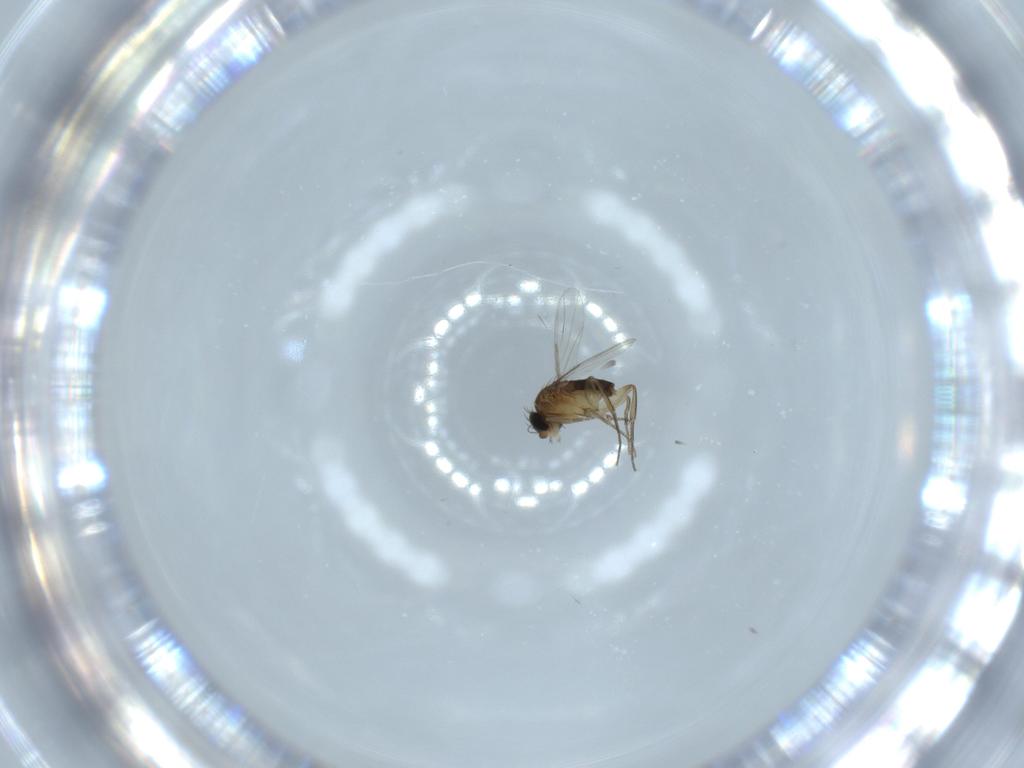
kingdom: Animalia
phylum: Arthropoda
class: Insecta
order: Diptera
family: Phoridae
